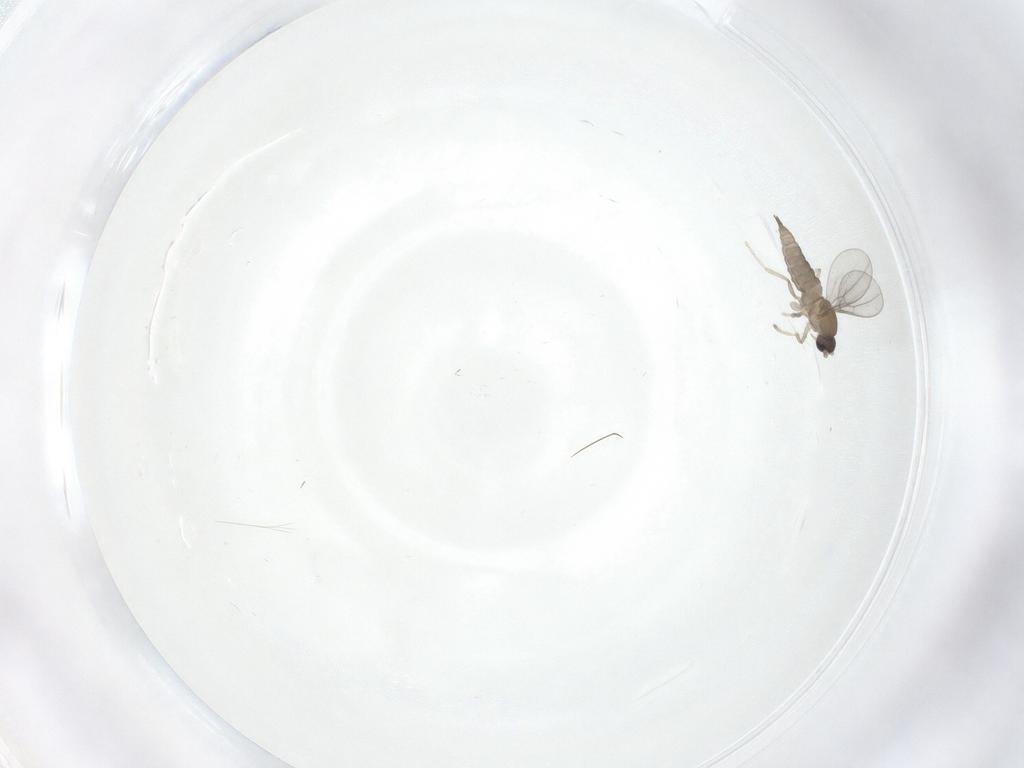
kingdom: Animalia
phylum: Arthropoda
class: Insecta
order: Diptera
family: Cecidomyiidae
